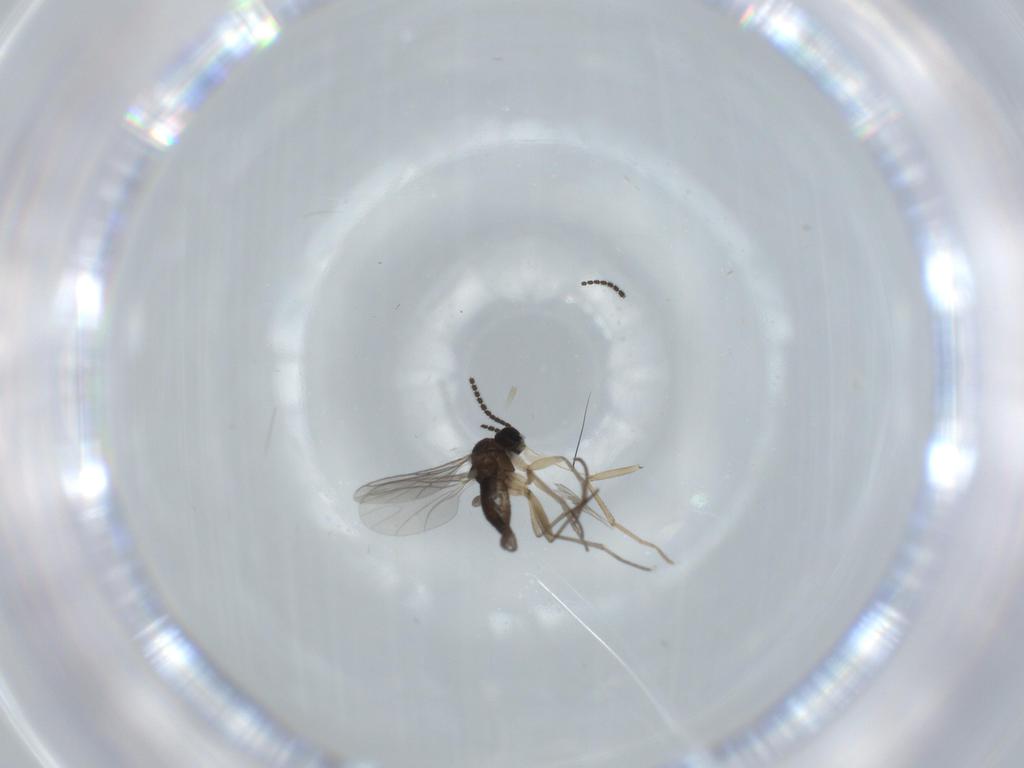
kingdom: Animalia
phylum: Arthropoda
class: Insecta
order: Diptera
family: Sciaridae
